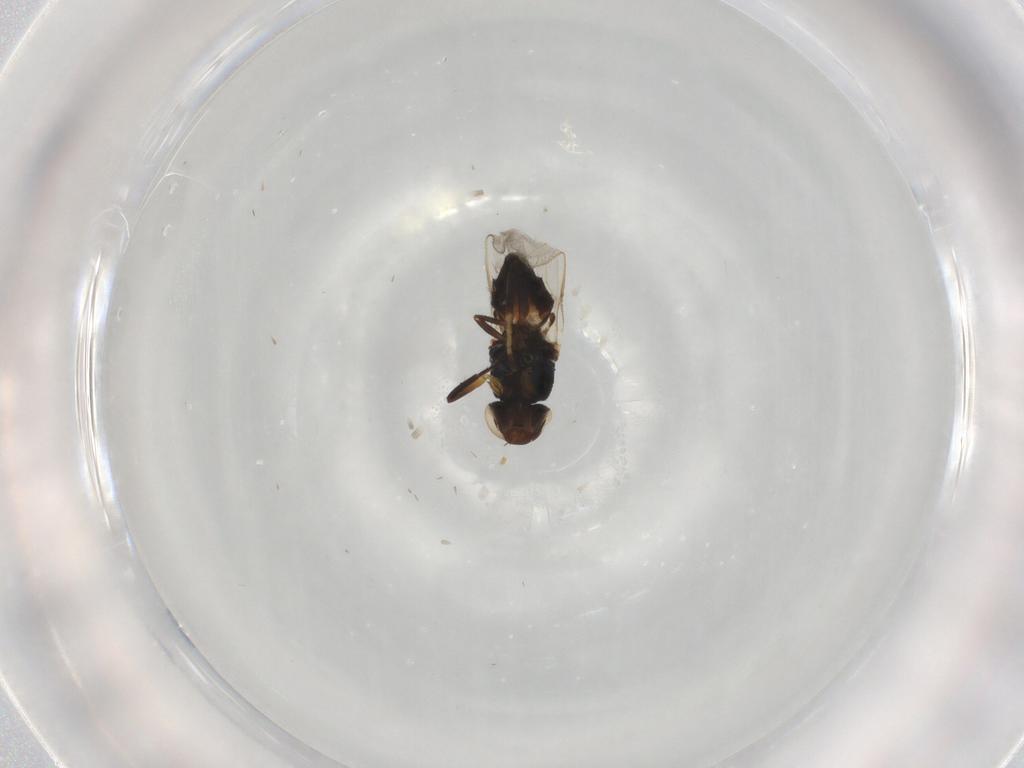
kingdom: Animalia
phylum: Arthropoda
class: Insecta
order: Diptera
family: Chloropidae
